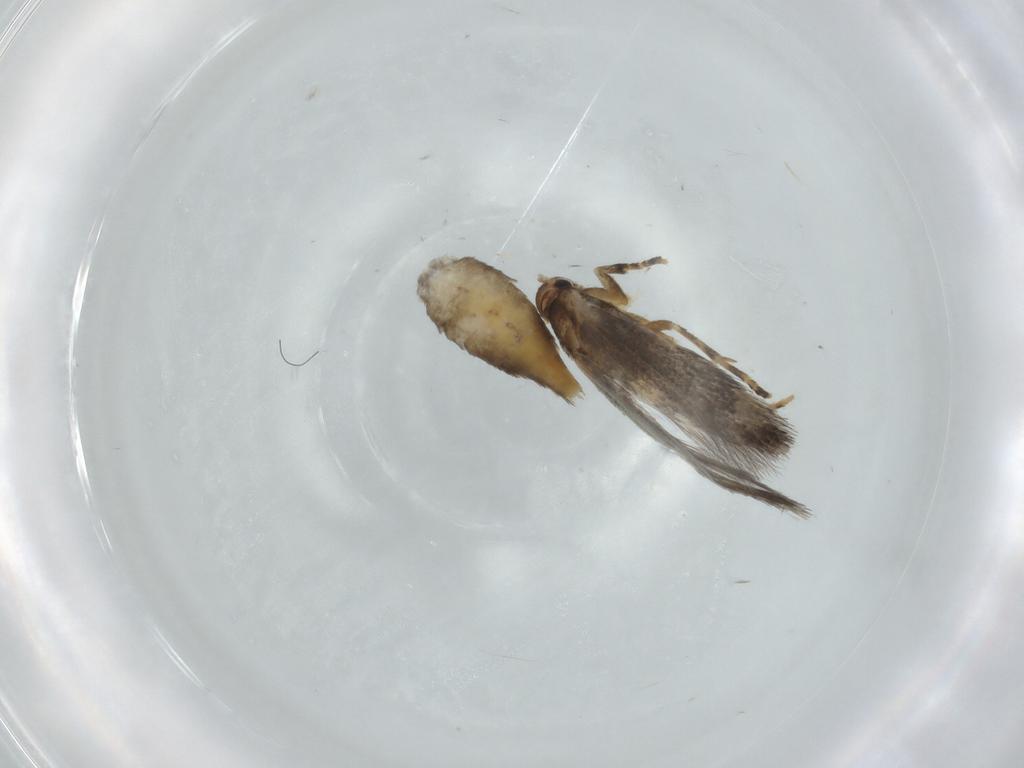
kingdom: Animalia
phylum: Arthropoda
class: Insecta
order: Lepidoptera
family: Elachistidae
